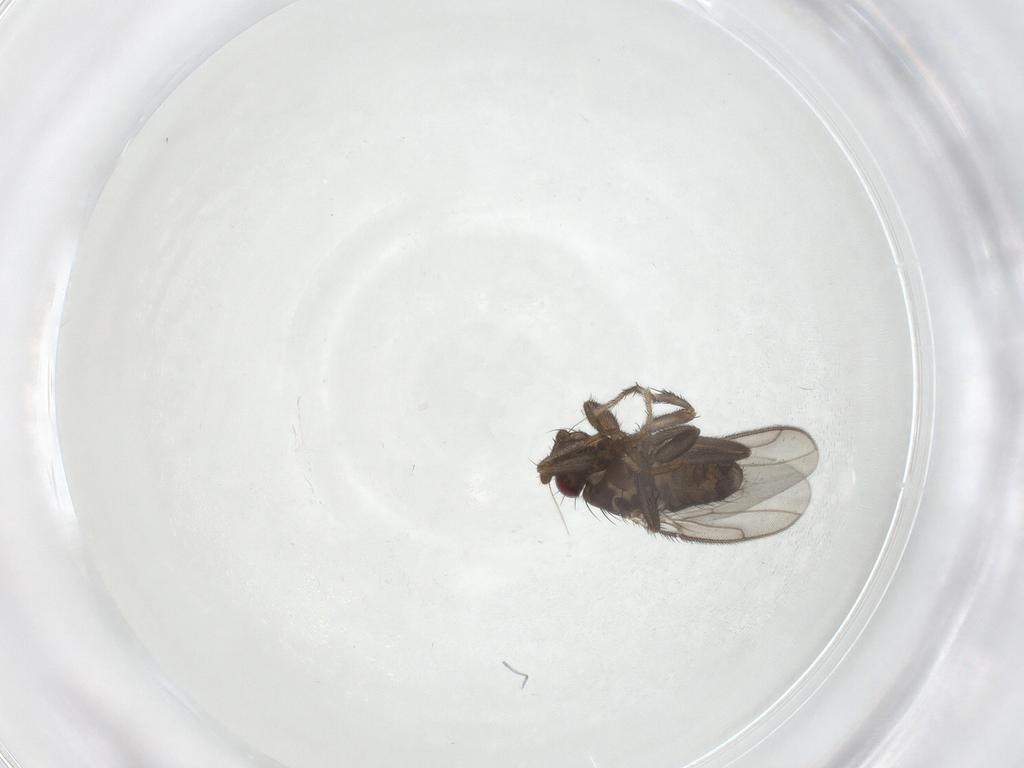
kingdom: Animalia
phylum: Arthropoda
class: Insecta
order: Diptera
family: Sphaeroceridae
